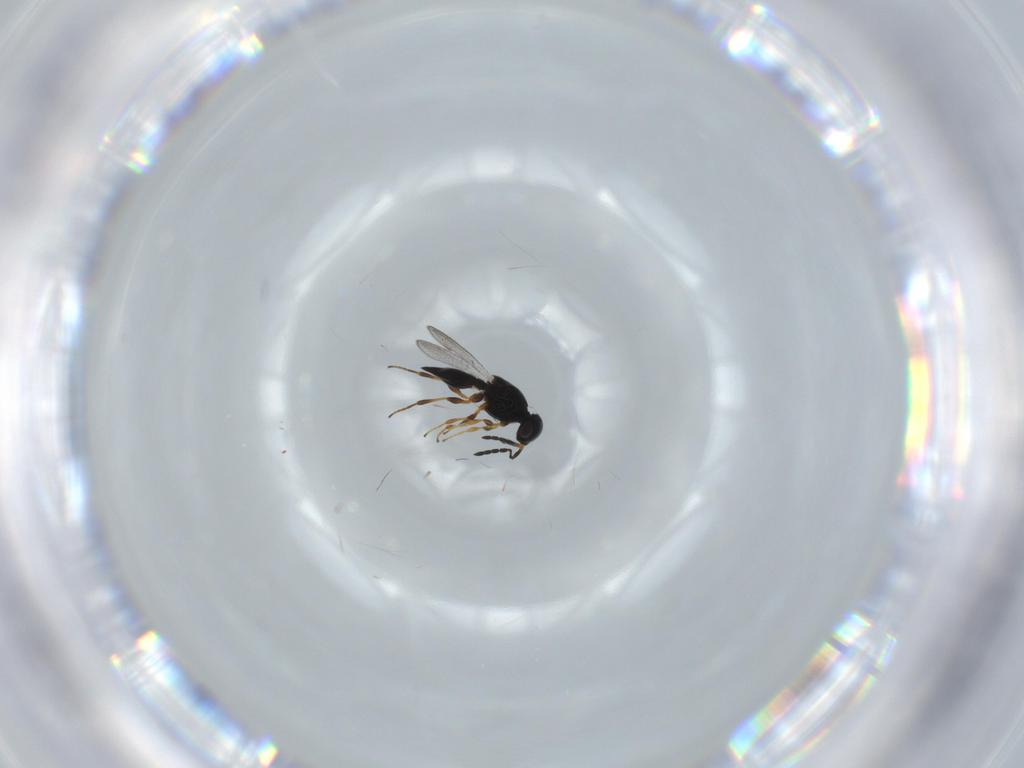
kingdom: Animalia
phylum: Arthropoda
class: Insecta
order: Hymenoptera
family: Platygastridae
